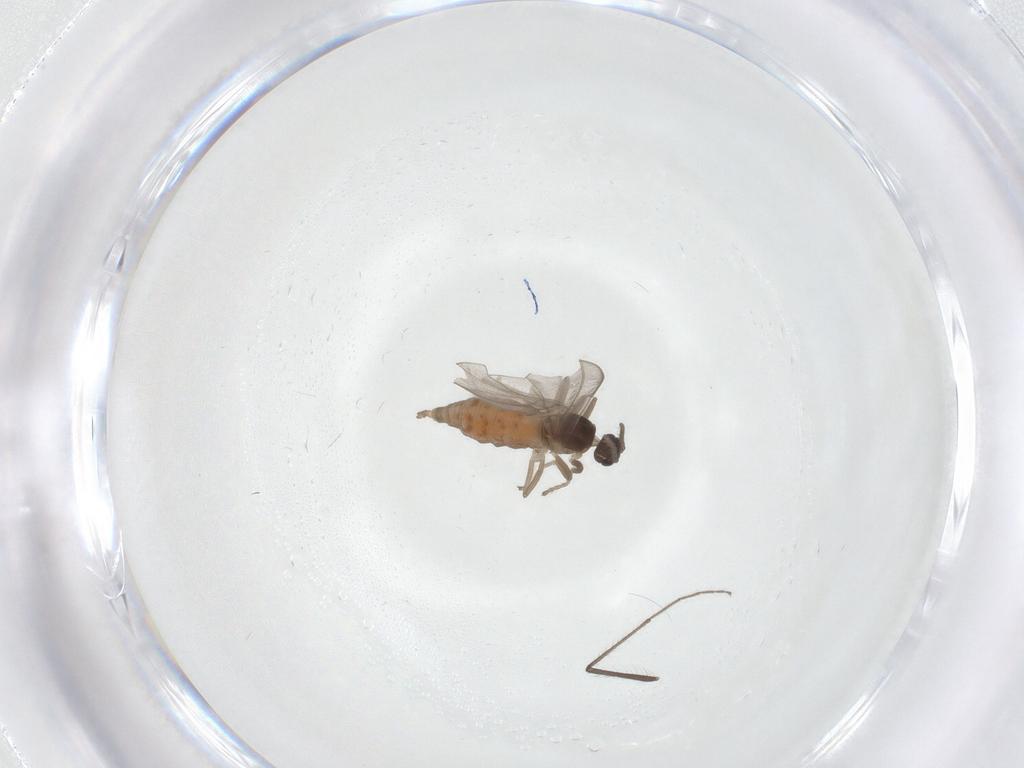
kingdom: Animalia
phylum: Arthropoda
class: Insecta
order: Diptera
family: Cecidomyiidae
